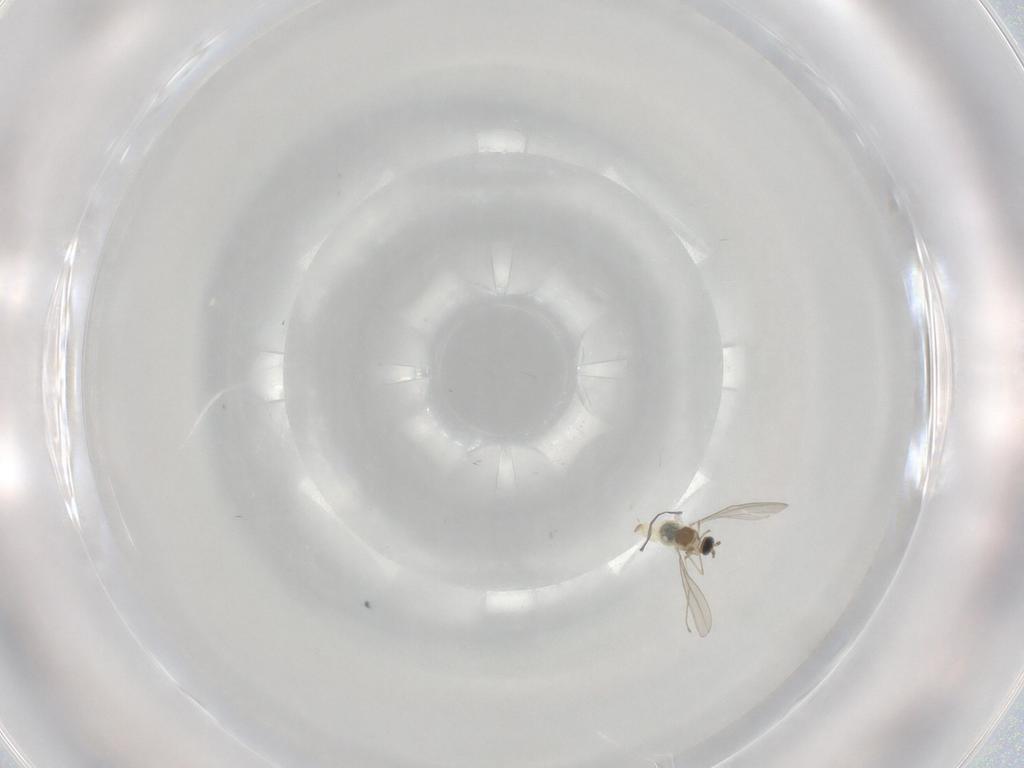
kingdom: Animalia
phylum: Arthropoda
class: Insecta
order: Diptera
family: Cecidomyiidae
